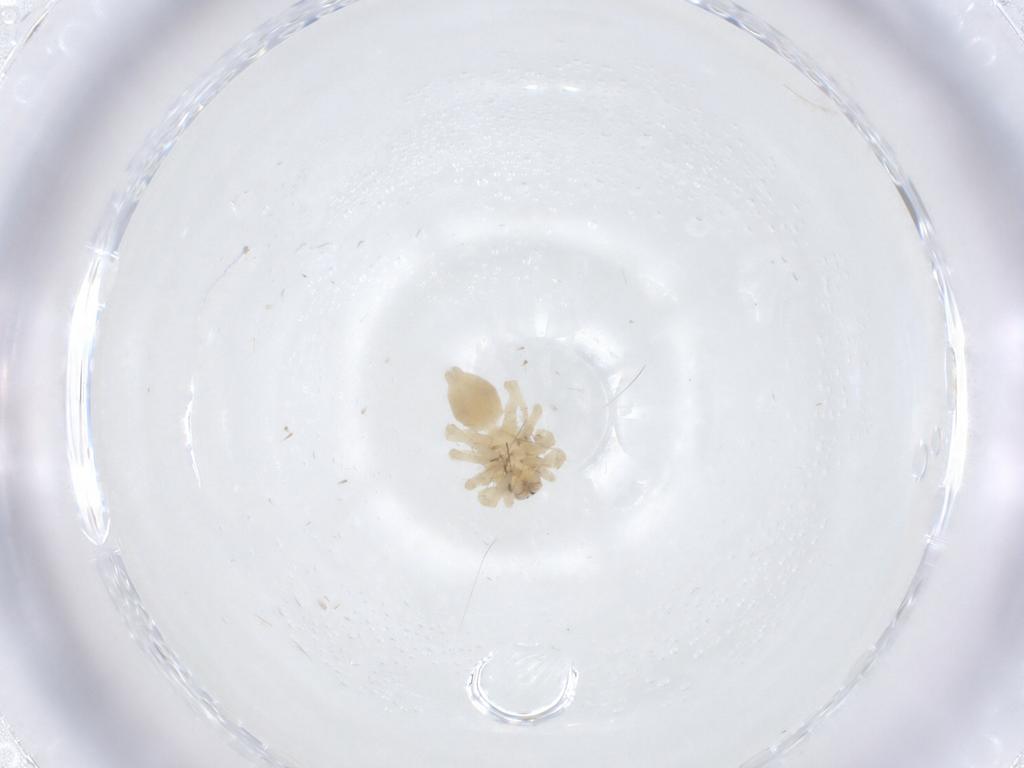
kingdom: Animalia
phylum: Arthropoda
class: Arachnida
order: Araneae
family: Clubionidae
